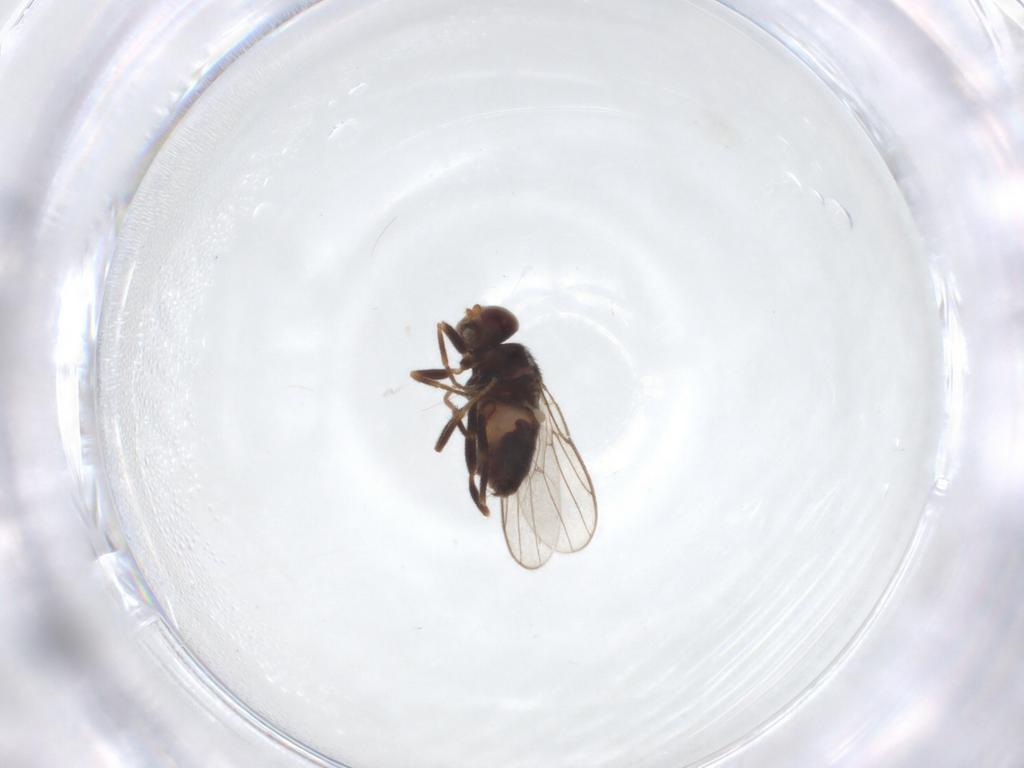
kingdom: Animalia
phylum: Arthropoda
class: Insecta
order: Diptera
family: Chloropidae
